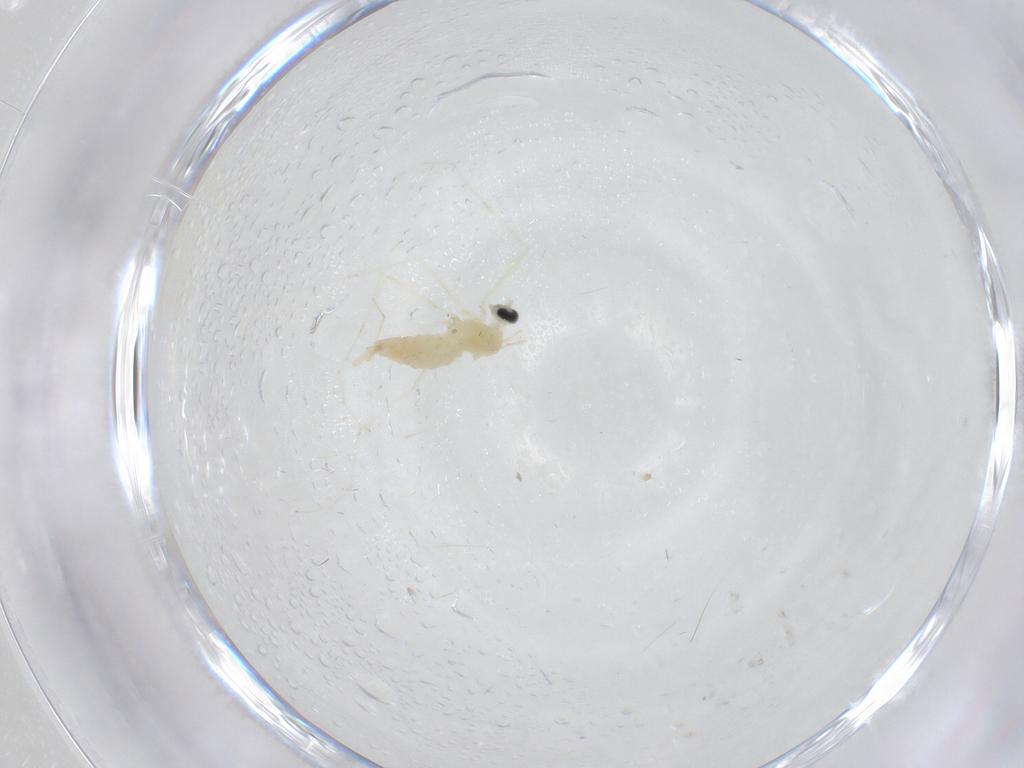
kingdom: Animalia
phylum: Arthropoda
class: Insecta
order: Diptera
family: Cecidomyiidae
